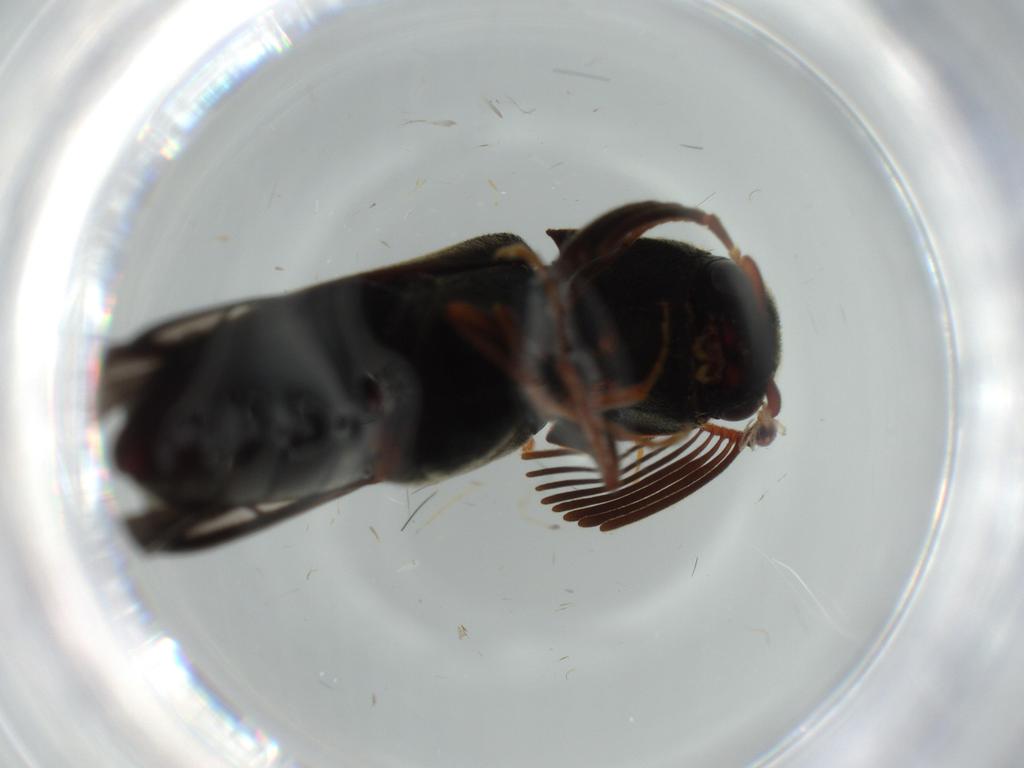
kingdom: Animalia
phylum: Arthropoda
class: Insecta
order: Coleoptera
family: Eucnemidae
